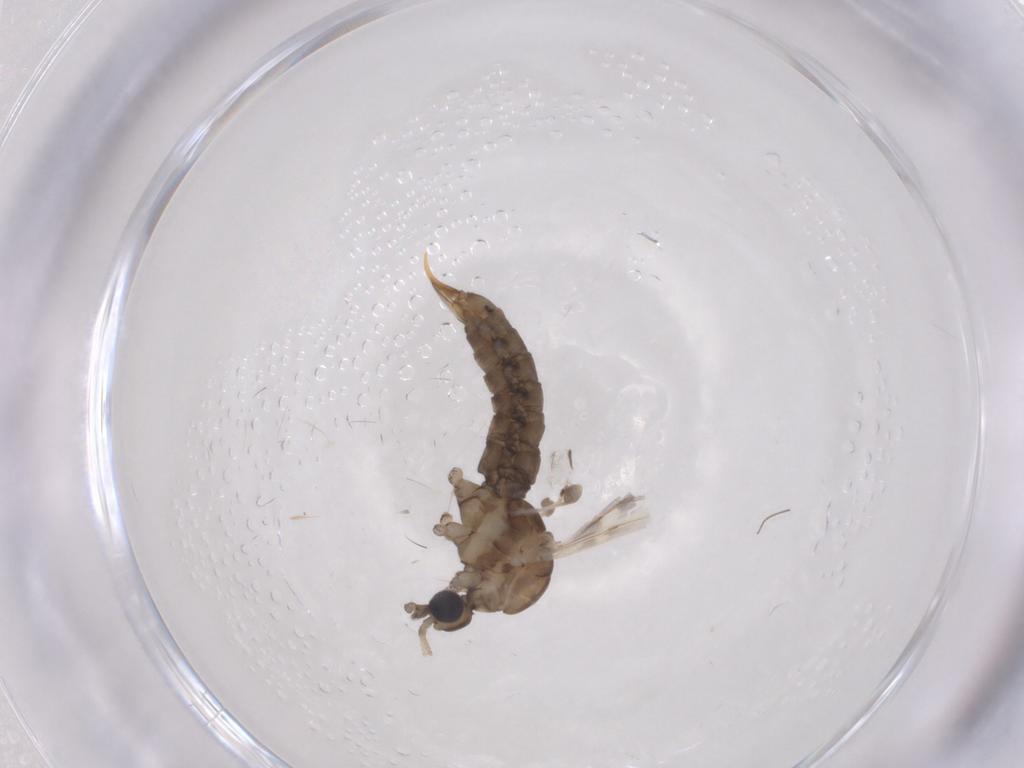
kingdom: Animalia
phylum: Arthropoda
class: Insecta
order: Diptera
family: Limoniidae
